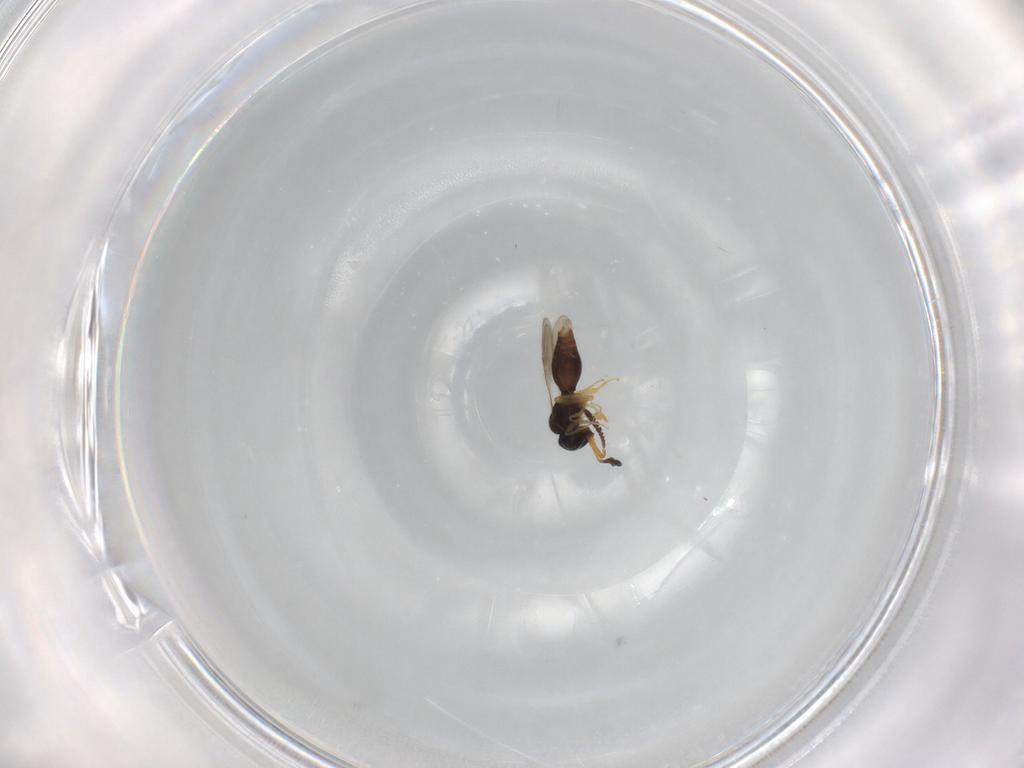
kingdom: Animalia
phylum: Arthropoda
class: Insecta
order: Hymenoptera
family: Ceraphronidae
